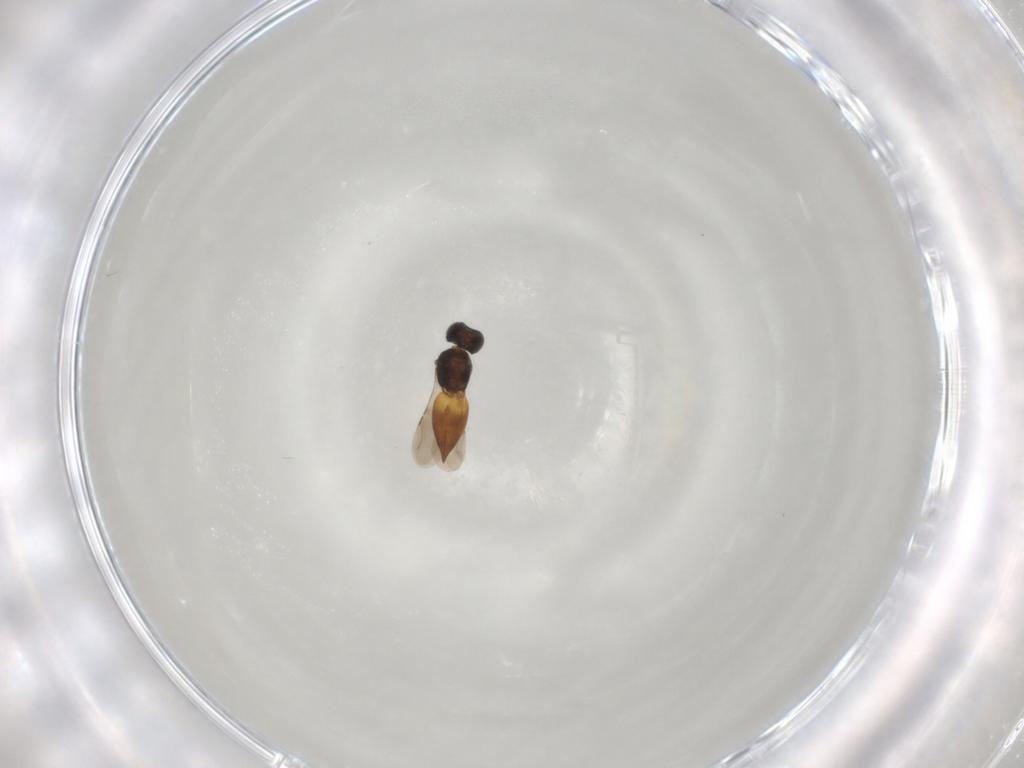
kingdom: Animalia
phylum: Arthropoda
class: Insecta
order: Hymenoptera
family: Ceraphronidae
